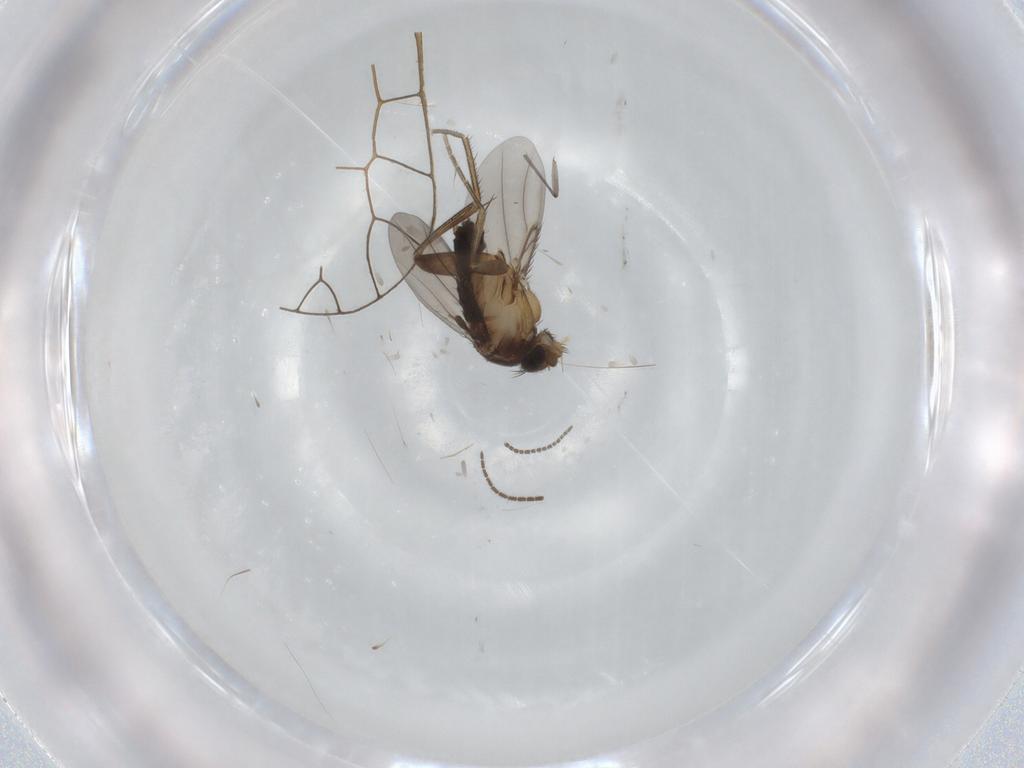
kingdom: Animalia
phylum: Arthropoda
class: Insecta
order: Diptera
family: Phoridae
